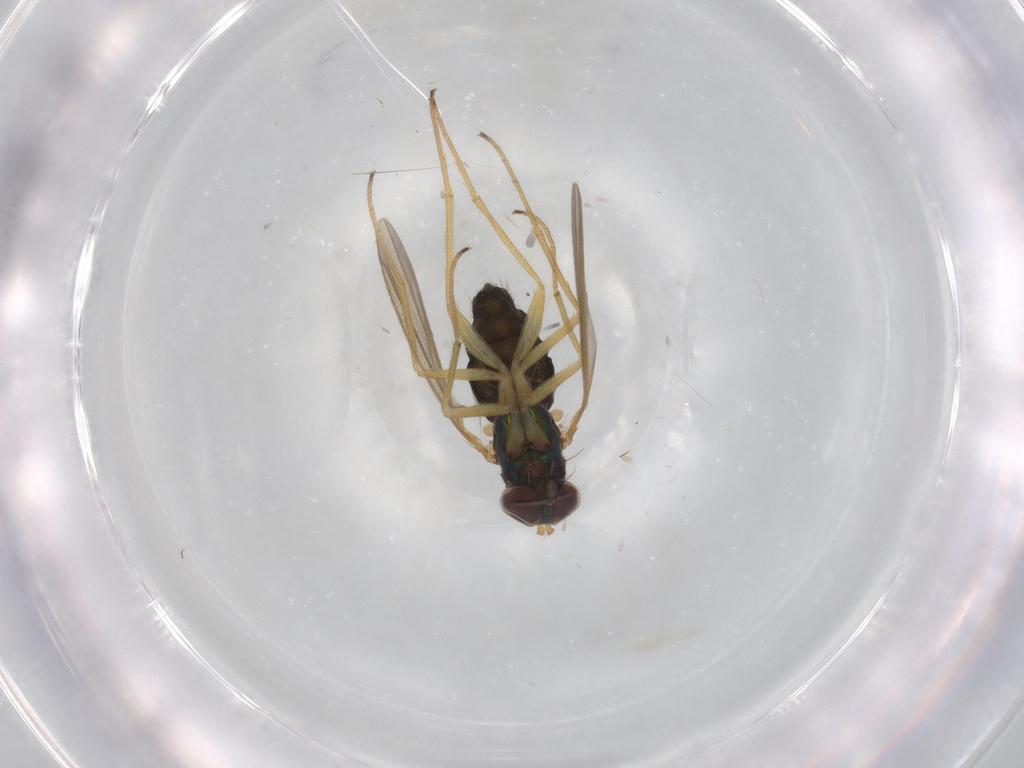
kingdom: Animalia
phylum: Arthropoda
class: Insecta
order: Diptera
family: Dolichopodidae
